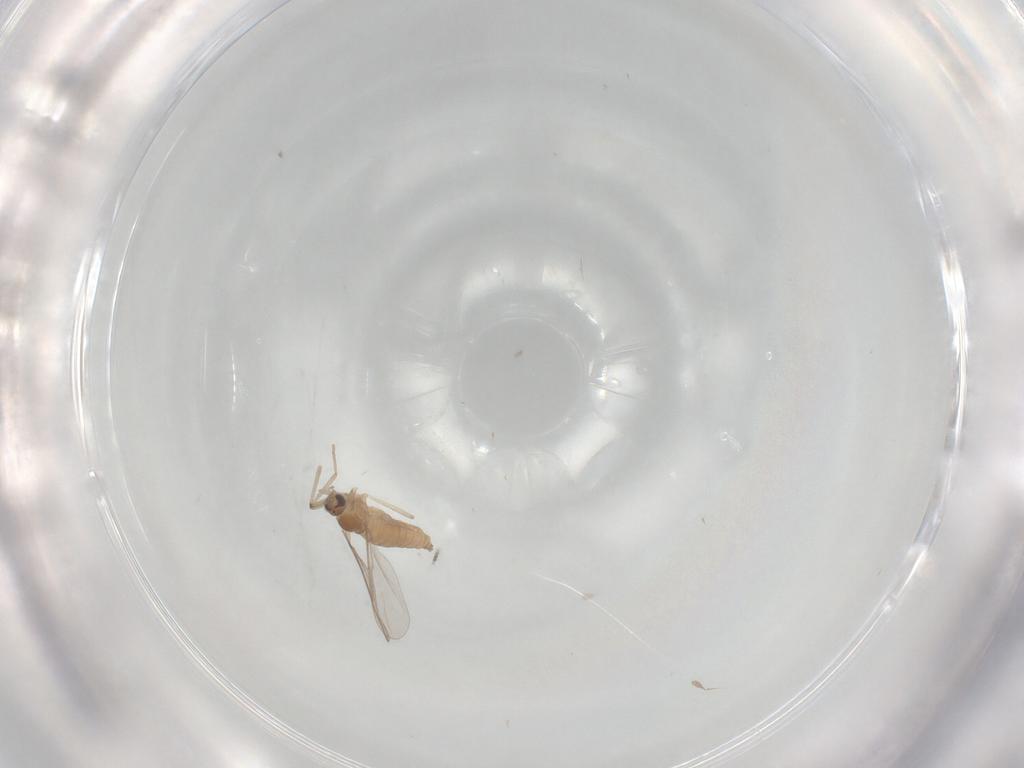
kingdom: Animalia
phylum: Arthropoda
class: Insecta
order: Diptera
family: Cecidomyiidae
